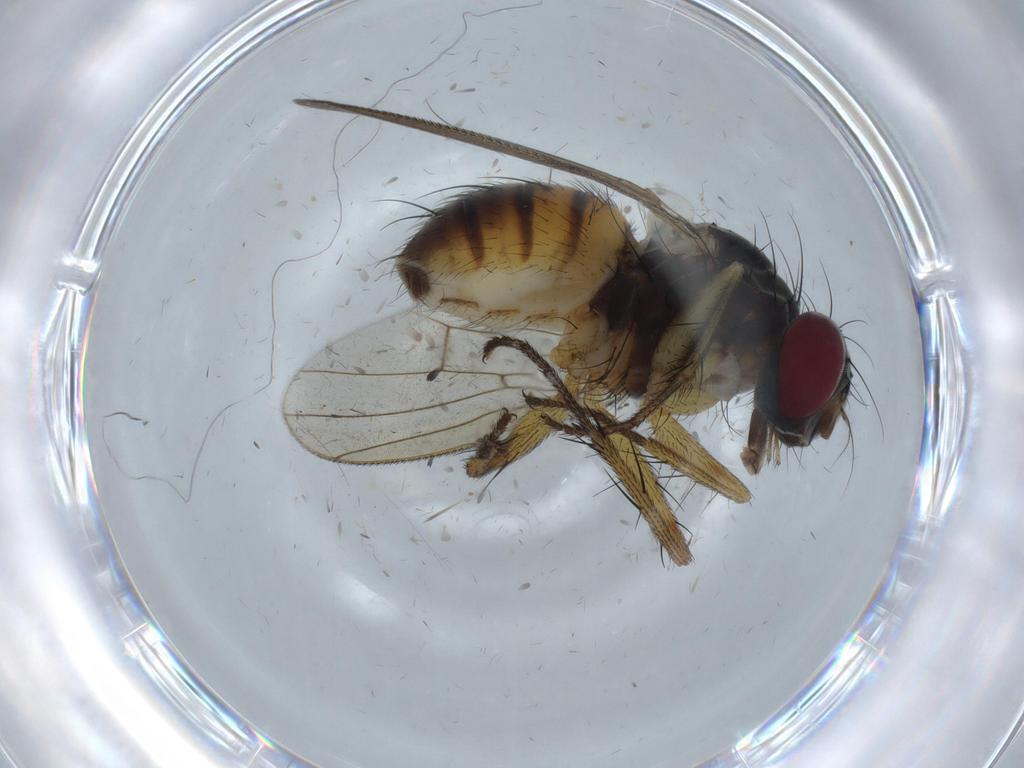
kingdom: Animalia
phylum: Arthropoda
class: Insecta
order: Diptera
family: Muscidae
